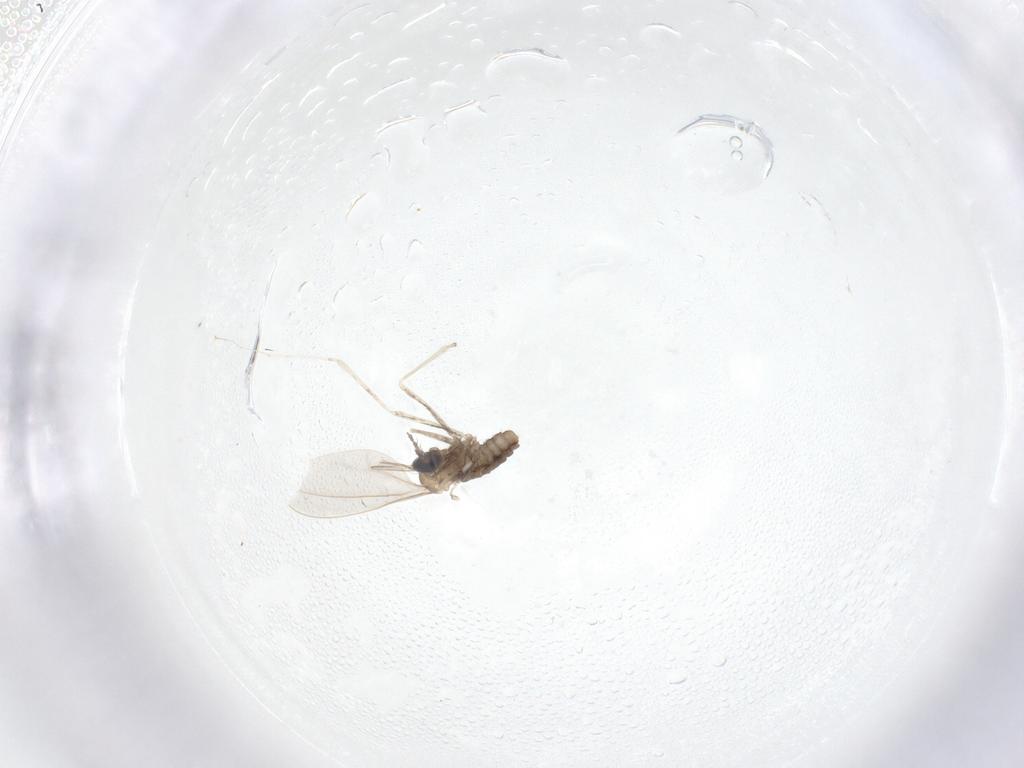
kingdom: Animalia
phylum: Arthropoda
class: Insecta
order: Diptera
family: Cecidomyiidae
